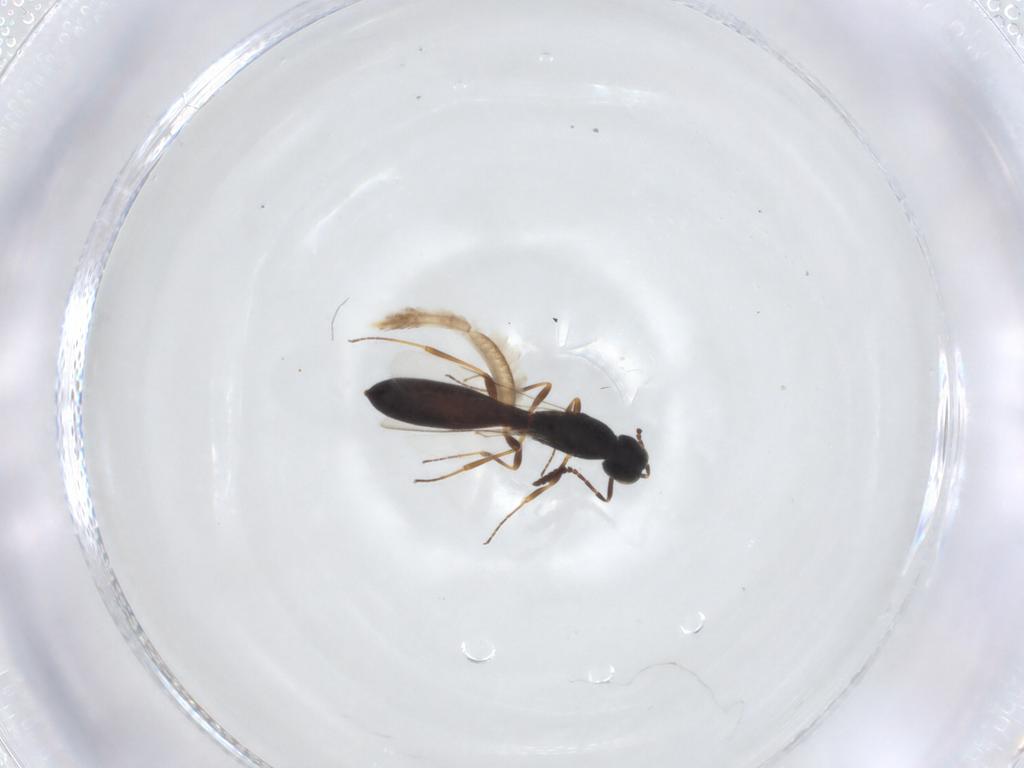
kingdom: Animalia
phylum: Arthropoda
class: Insecta
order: Hymenoptera
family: Scelionidae
